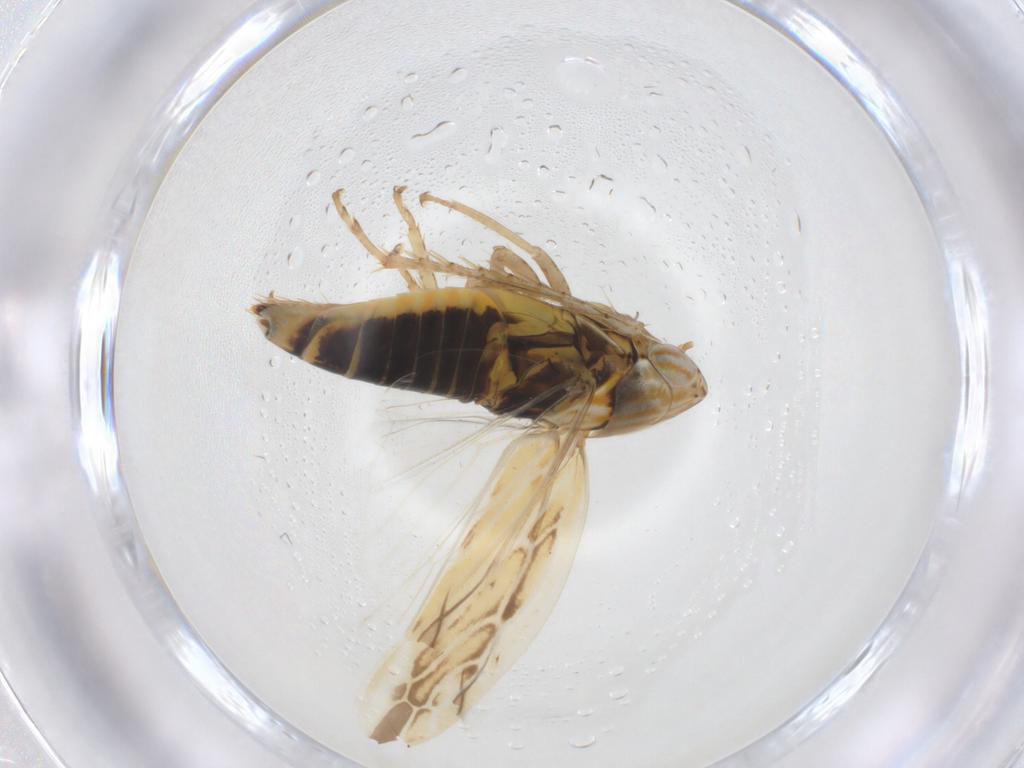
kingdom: Animalia
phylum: Arthropoda
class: Insecta
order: Hemiptera
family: Cicadellidae
